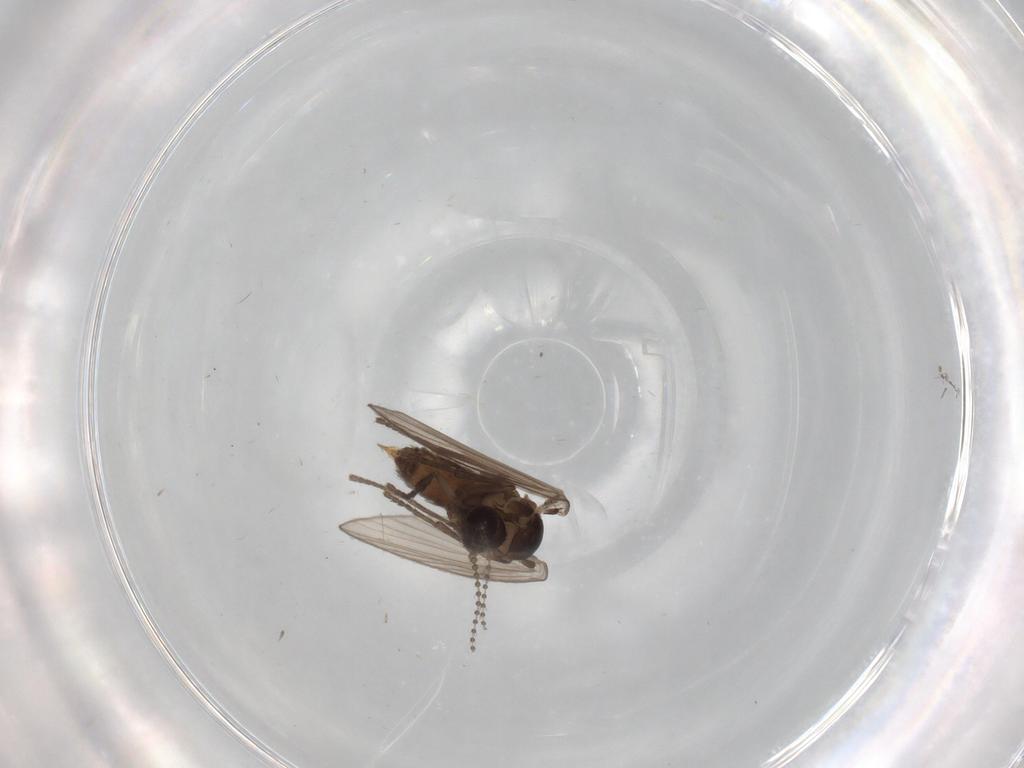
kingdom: Animalia
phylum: Arthropoda
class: Insecta
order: Diptera
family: Psychodidae
